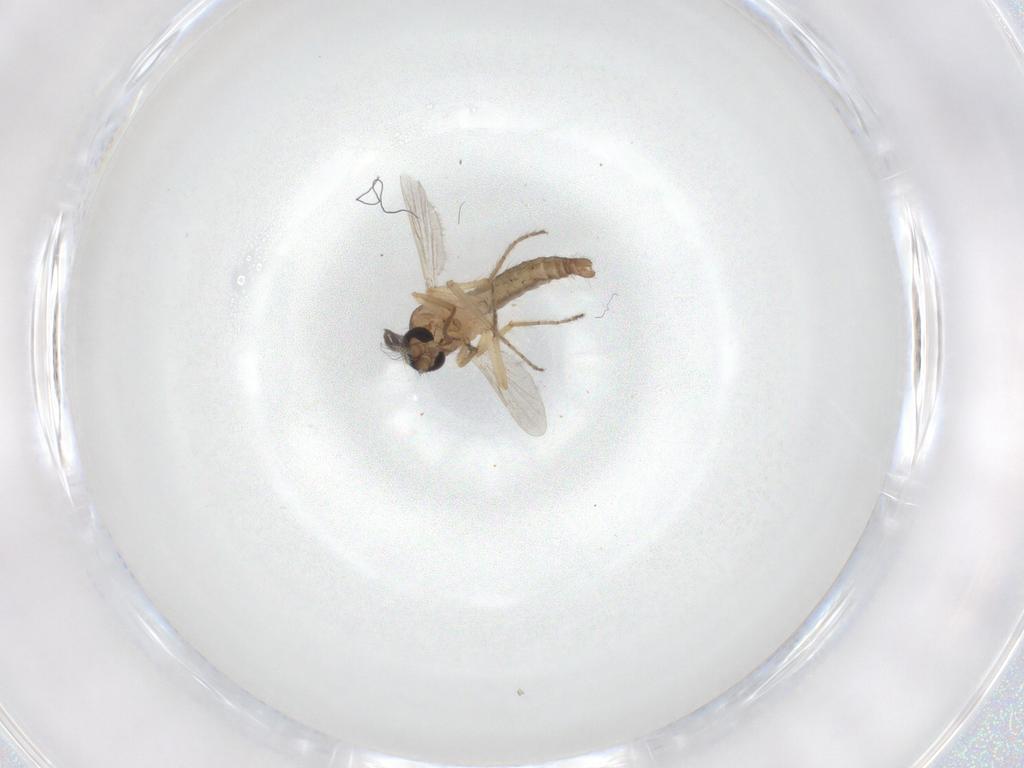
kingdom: Animalia
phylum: Arthropoda
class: Insecta
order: Diptera
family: Ceratopogonidae
